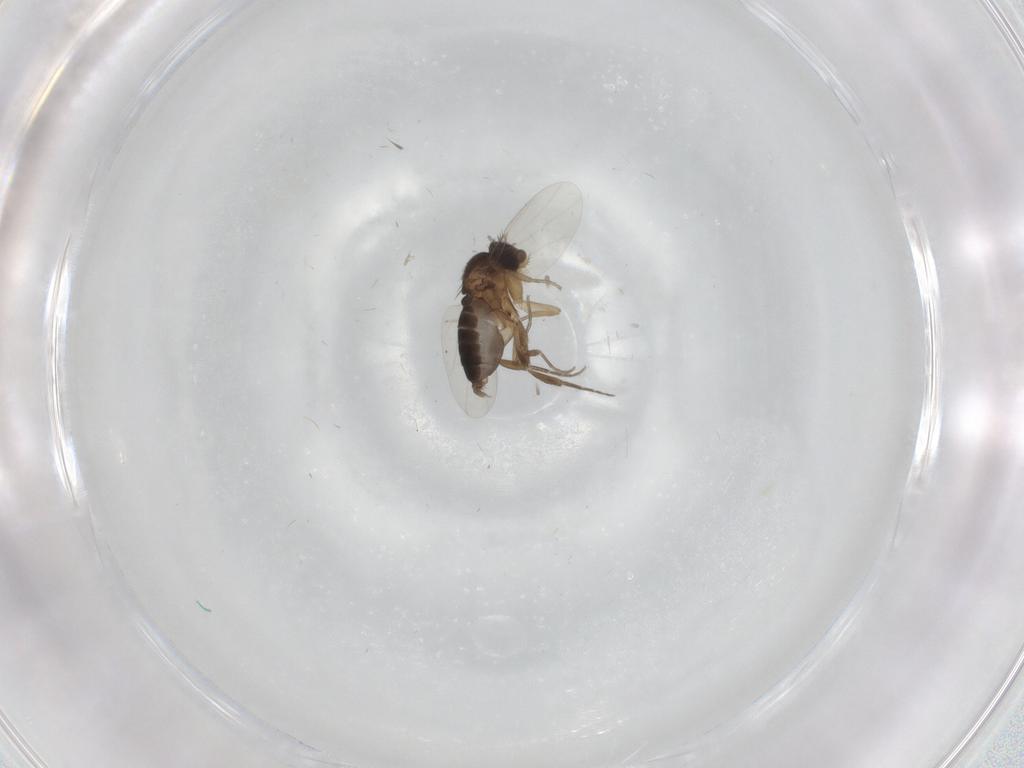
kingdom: Animalia
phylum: Arthropoda
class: Insecta
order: Diptera
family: Phoridae
